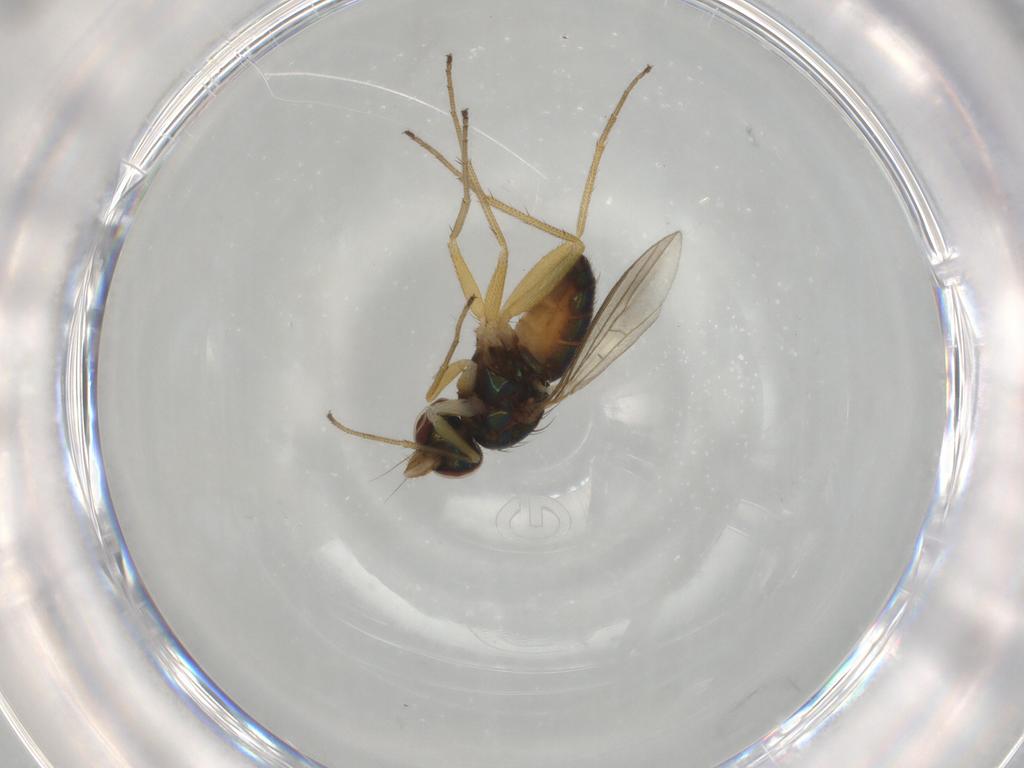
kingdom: Animalia
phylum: Arthropoda
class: Insecta
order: Diptera
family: Dolichopodidae
